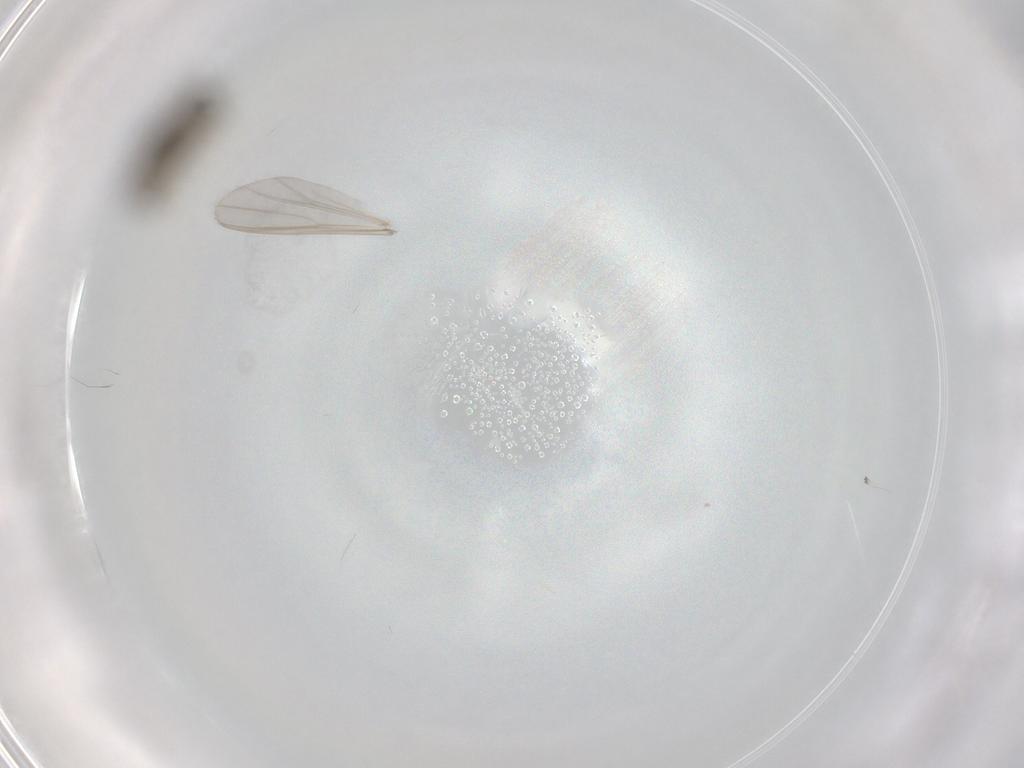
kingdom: Animalia
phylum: Arthropoda
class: Insecta
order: Diptera
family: Chironomidae
